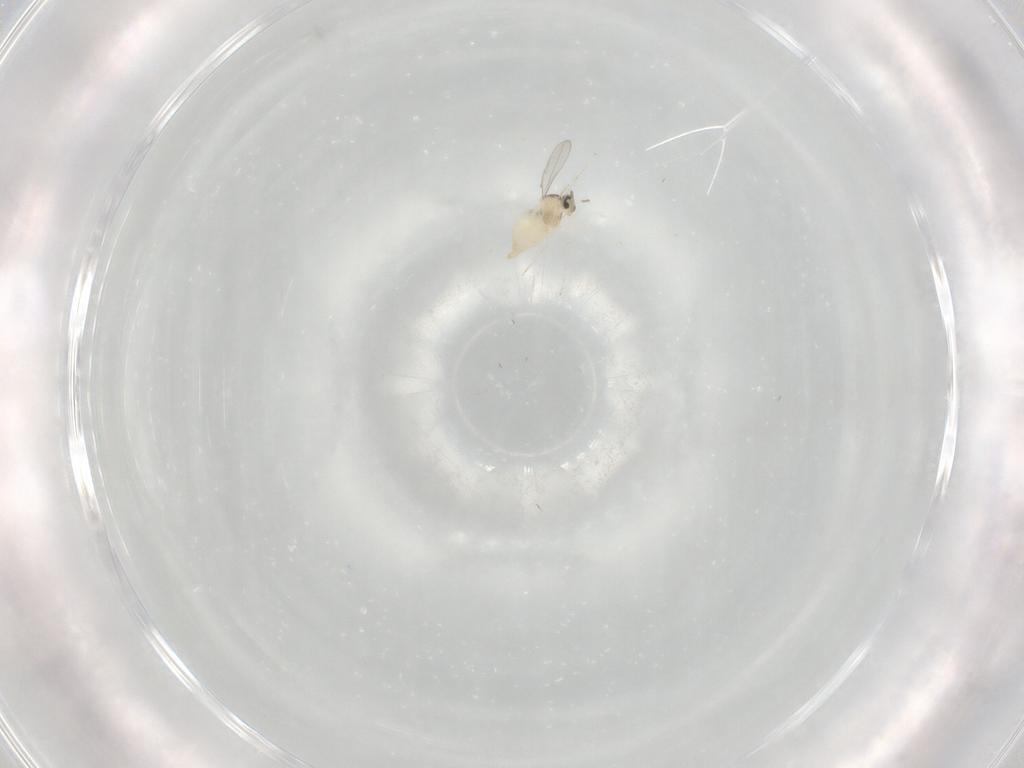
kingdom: Animalia
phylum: Arthropoda
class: Insecta
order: Diptera
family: Cecidomyiidae
